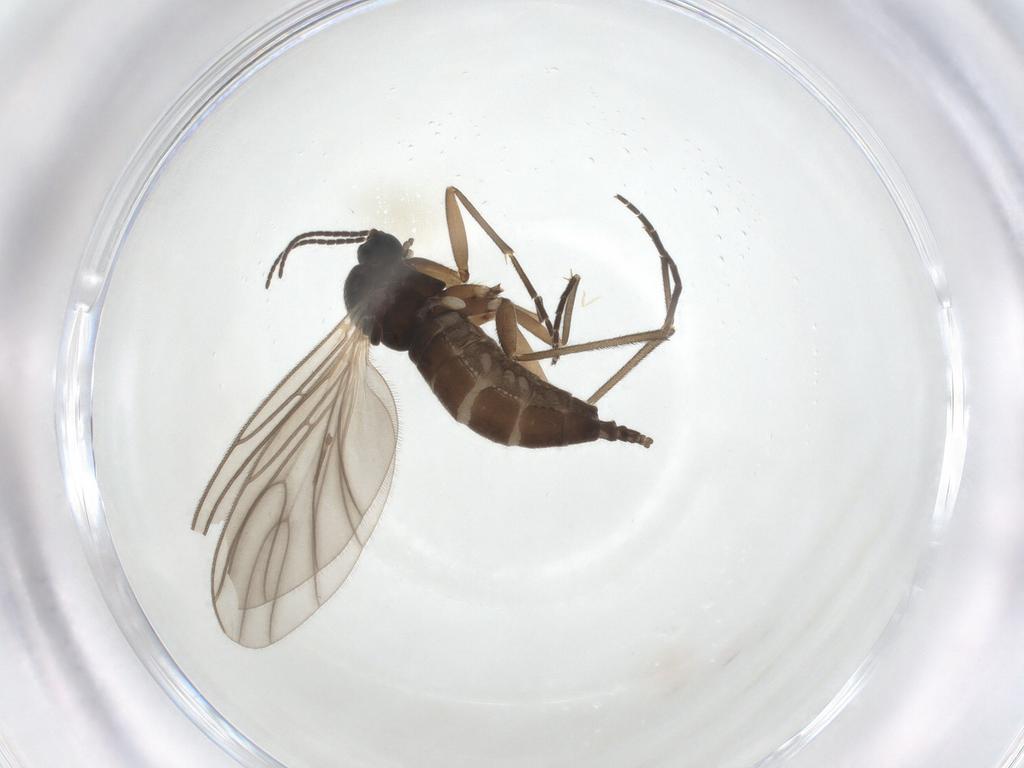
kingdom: Animalia
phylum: Arthropoda
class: Insecta
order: Diptera
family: Sciaridae
